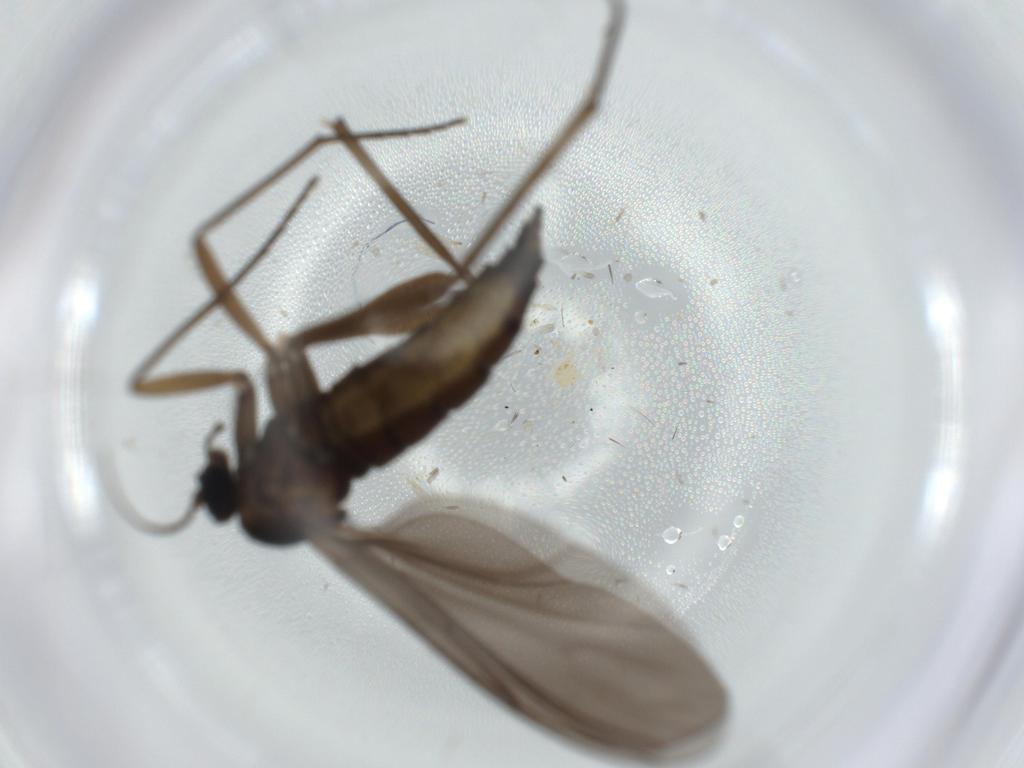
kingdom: Animalia
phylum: Arthropoda
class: Insecta
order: Diptera
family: Sciaridae
